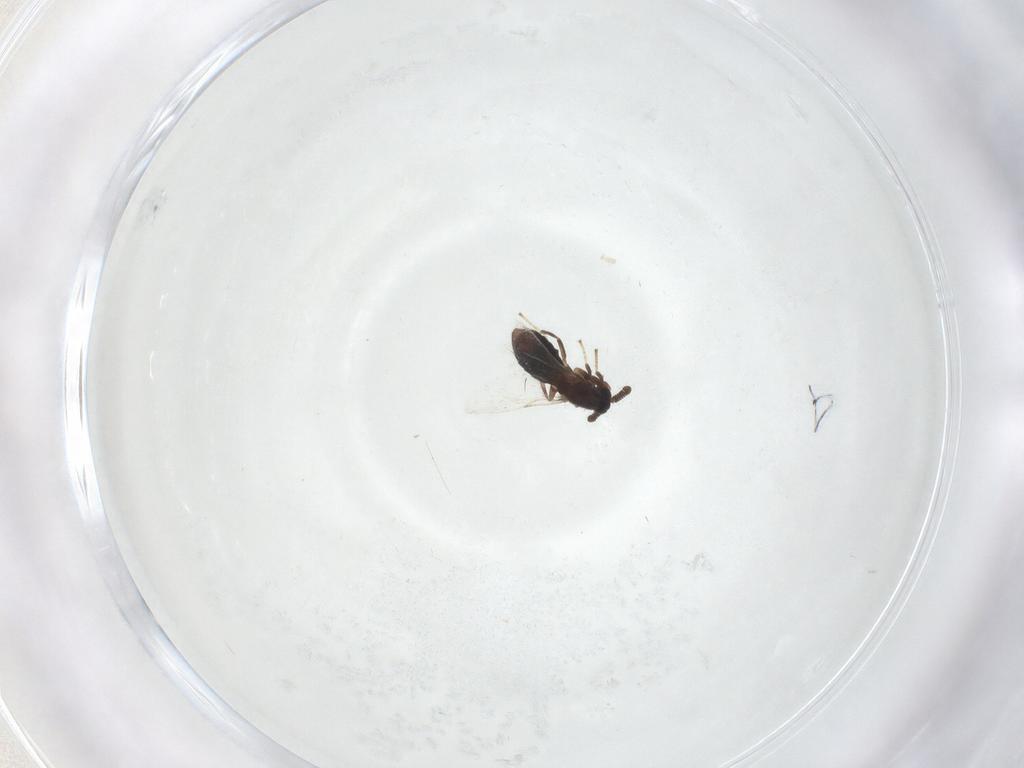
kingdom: Animalia
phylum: Arthropoda
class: Insecta
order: Diptera
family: Scatopsidae
